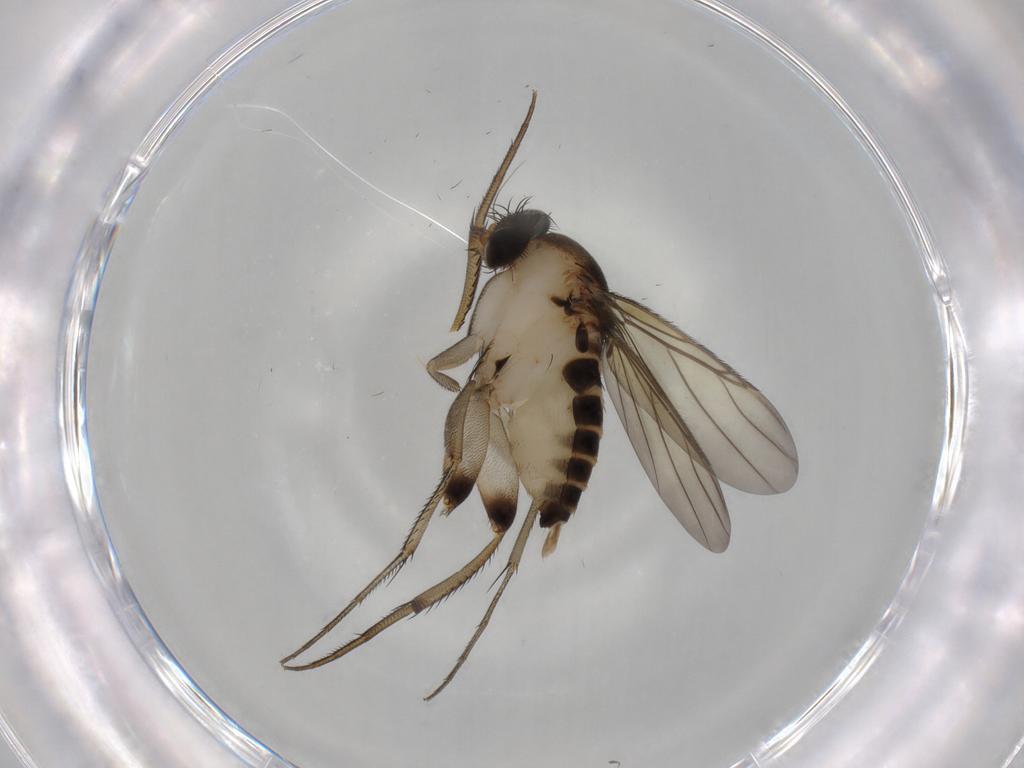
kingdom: Animalia
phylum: Arthropoda
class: Insecta
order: Diptera
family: Phoridae
